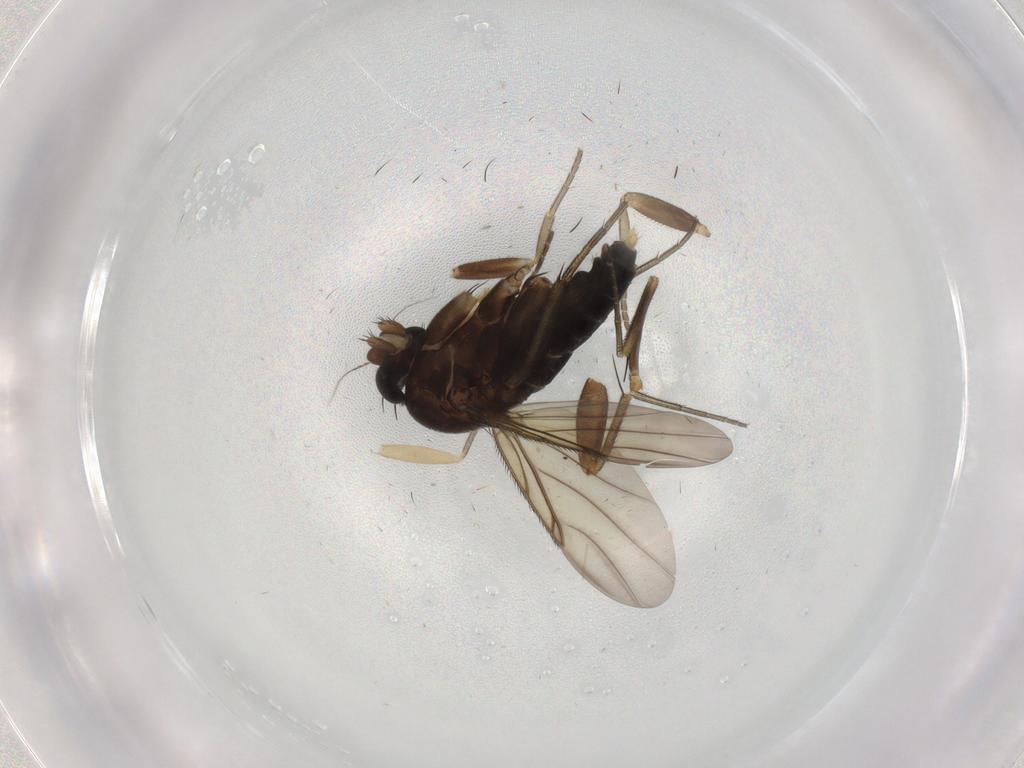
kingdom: Animalia
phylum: Arthropoda
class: Insecta
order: Diptera
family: Phoridae
